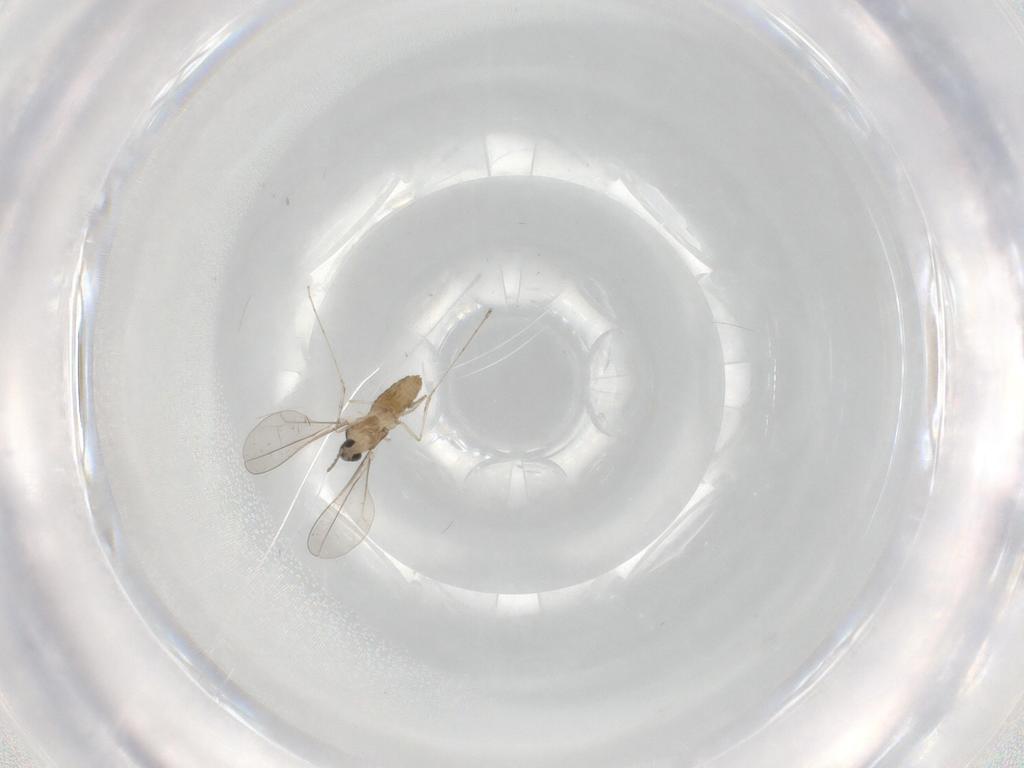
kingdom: Animalia
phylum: Arthropoda
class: Insecta
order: Diptera
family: Cecidomyiidae
